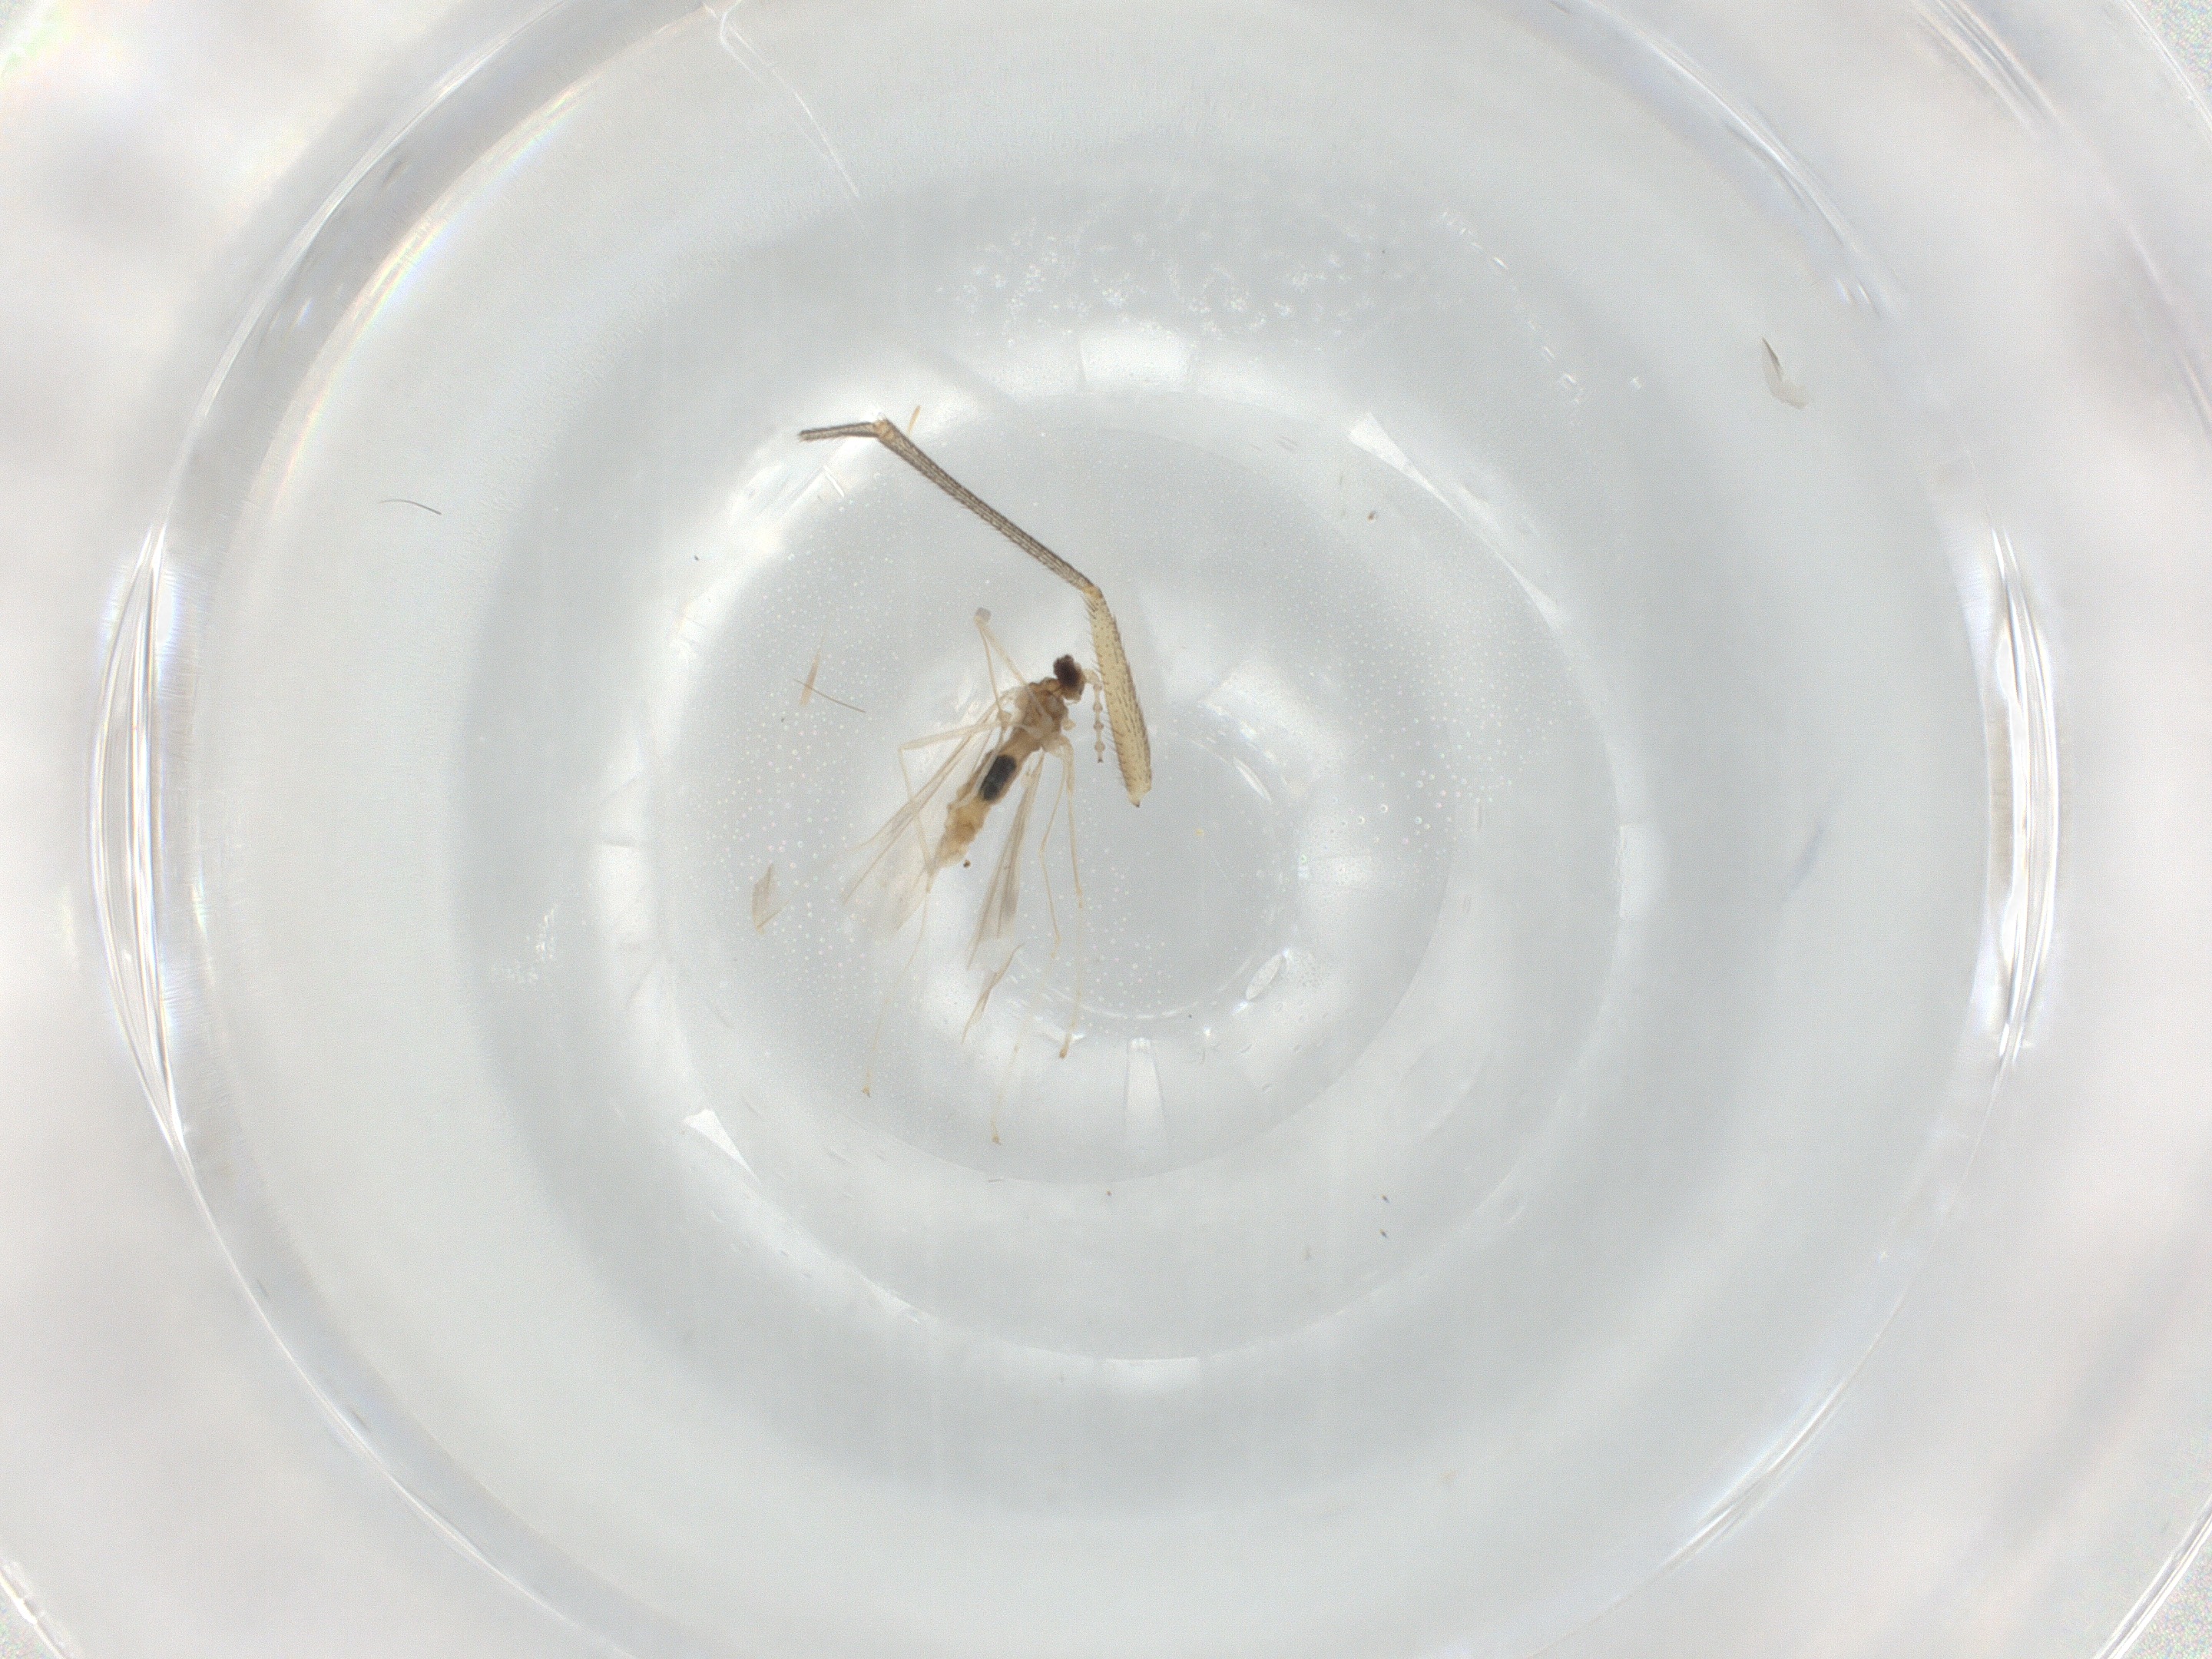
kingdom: Animalia
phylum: Arthropoda
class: Insecta
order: Diptera
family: Mycetophilidae
